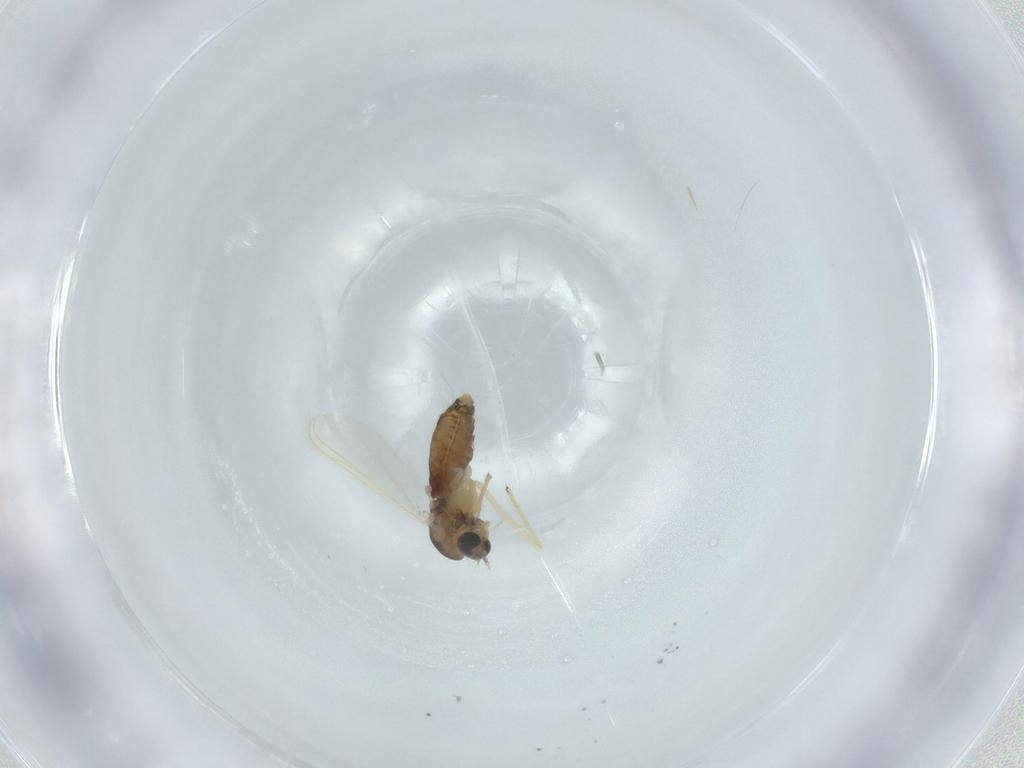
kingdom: Animalia
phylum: Arthropoda
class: Insecta
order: Diptera
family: Chironomidae
